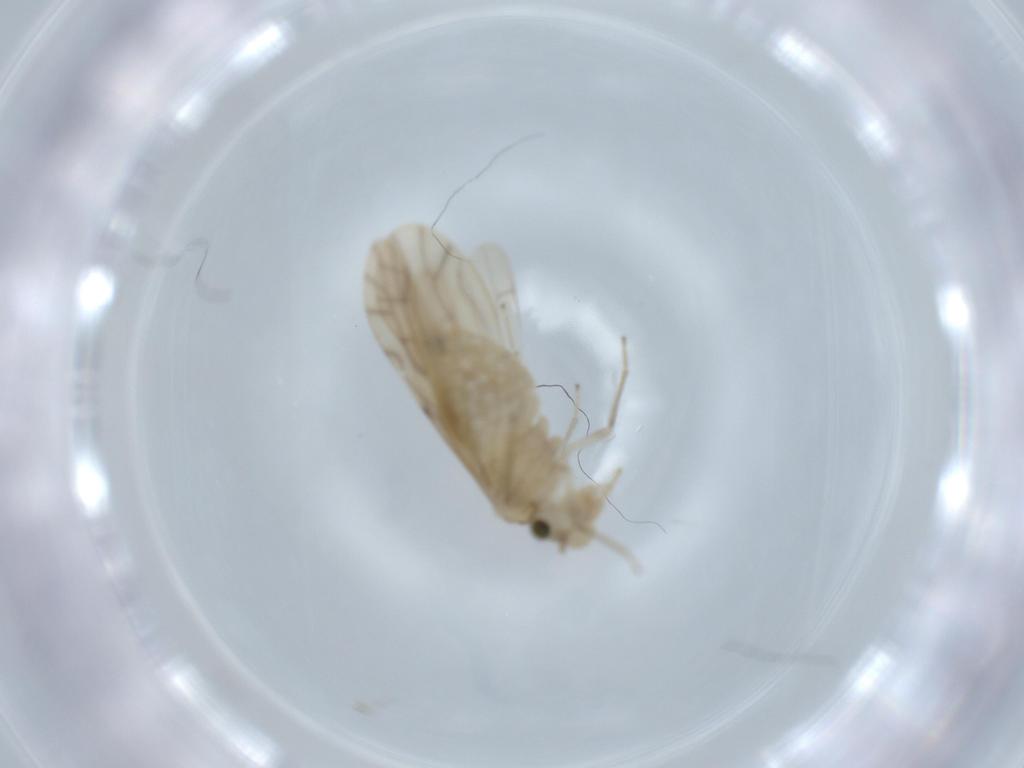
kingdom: Animalia
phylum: Arthropoda
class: Insecta
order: Psocodea
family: Caeciliusidae
